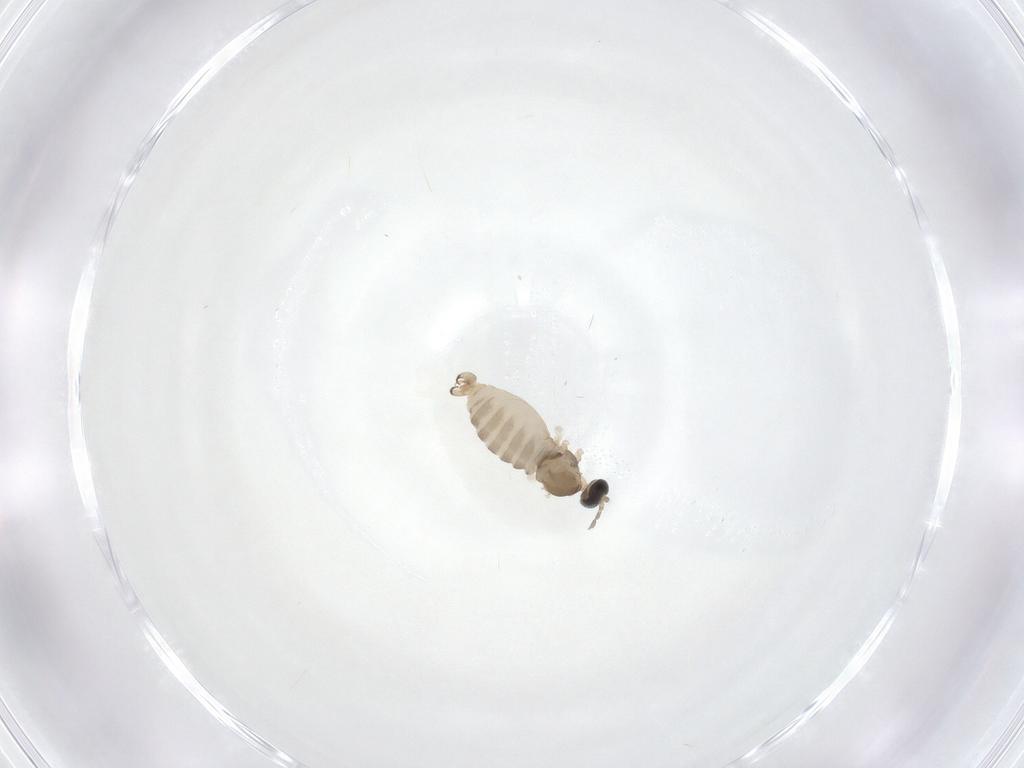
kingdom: Animalia
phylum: Arthropoda
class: Insecta
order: Diptera
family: Cecidomyiidae
